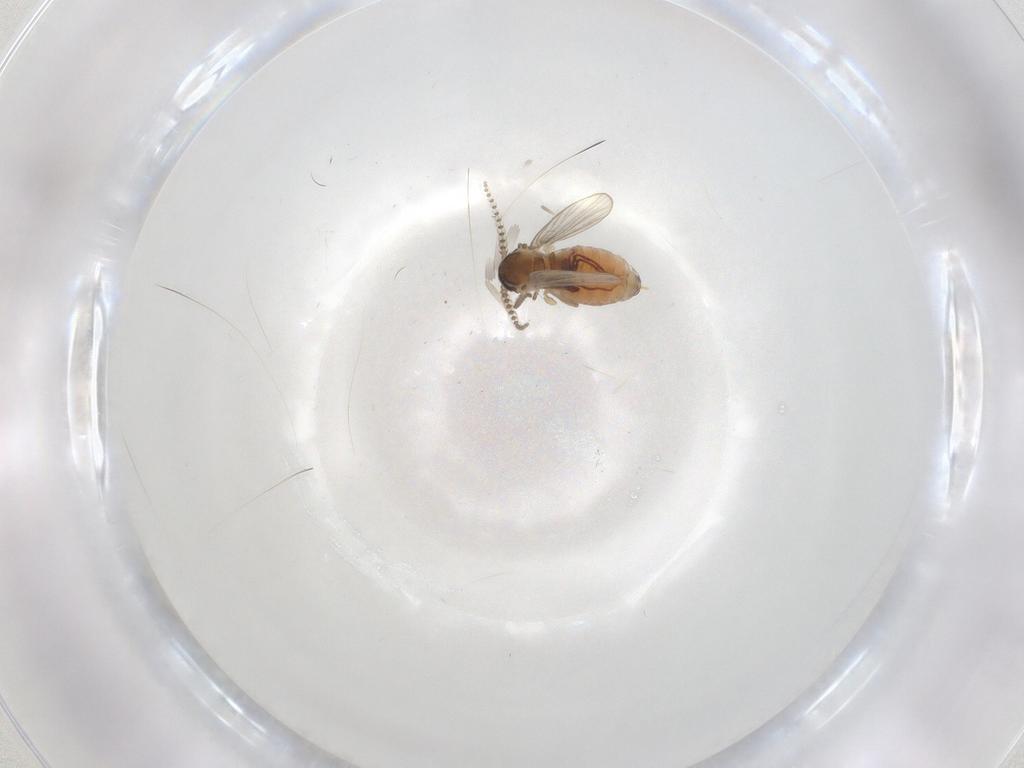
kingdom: Animalia
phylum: Arthropoda
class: Insecta
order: Diptera
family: Psychodidae
